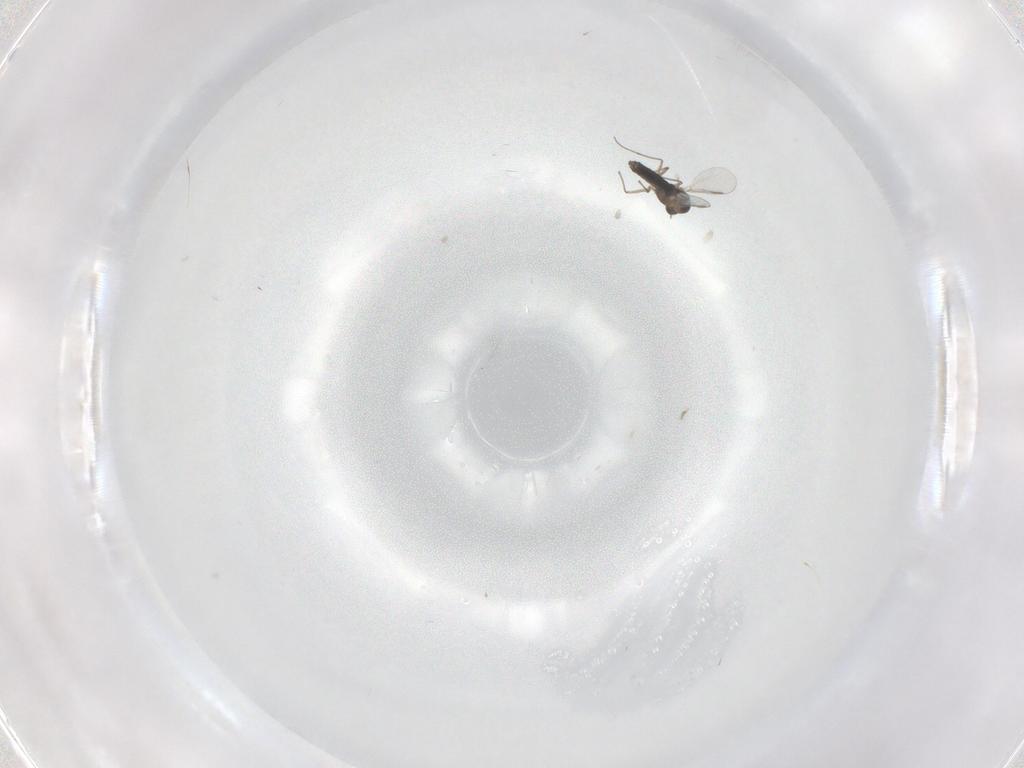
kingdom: Animalia
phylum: Arthropoda
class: Insecta
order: Diptera
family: Chironomidae
